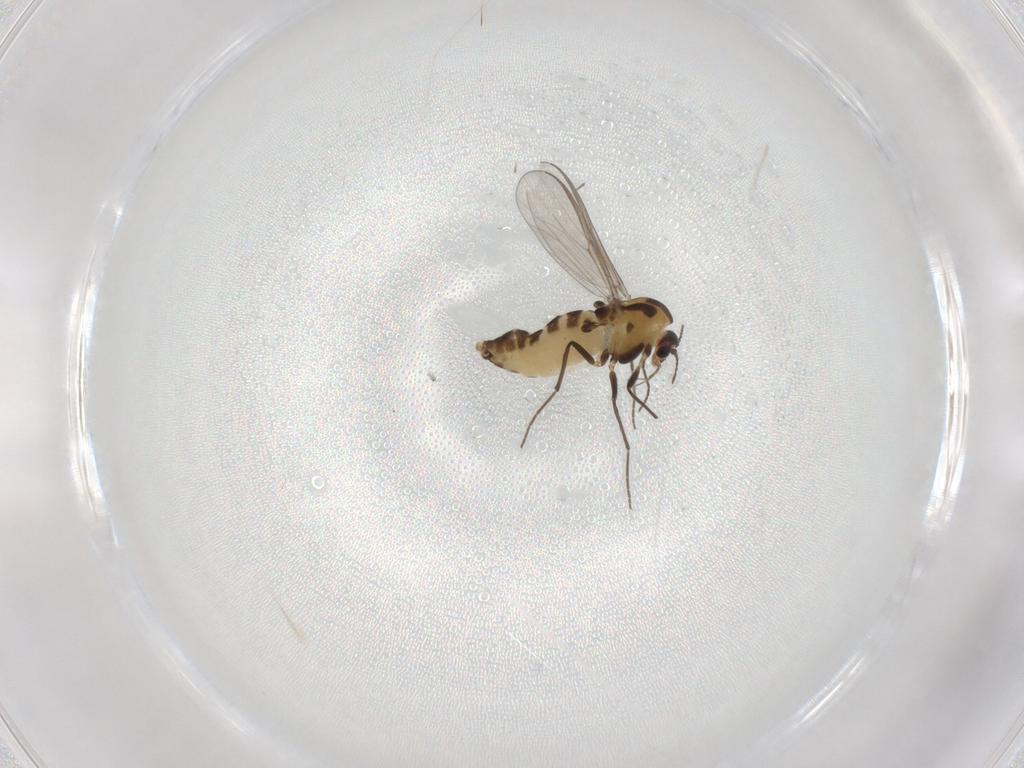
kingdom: Animalia
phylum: Arthropoda
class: Insecta
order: Diptera
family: Chironomidae
